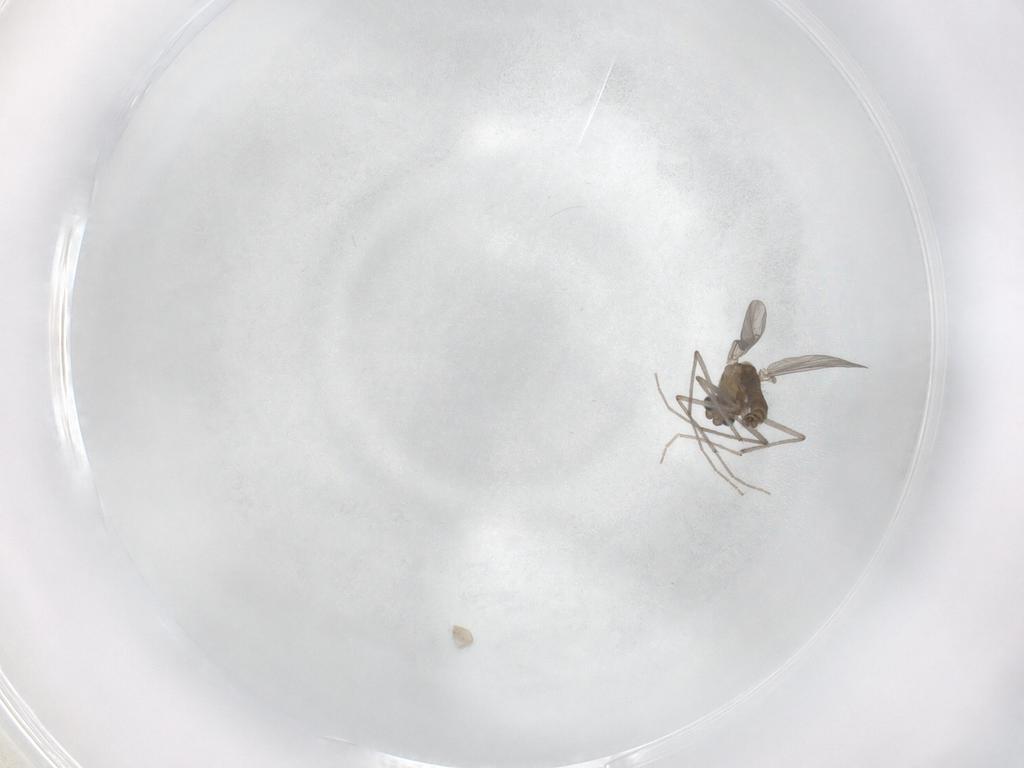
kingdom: Animalia
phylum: Arthropoda
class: Insecta
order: Diptera
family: Chironomidae
